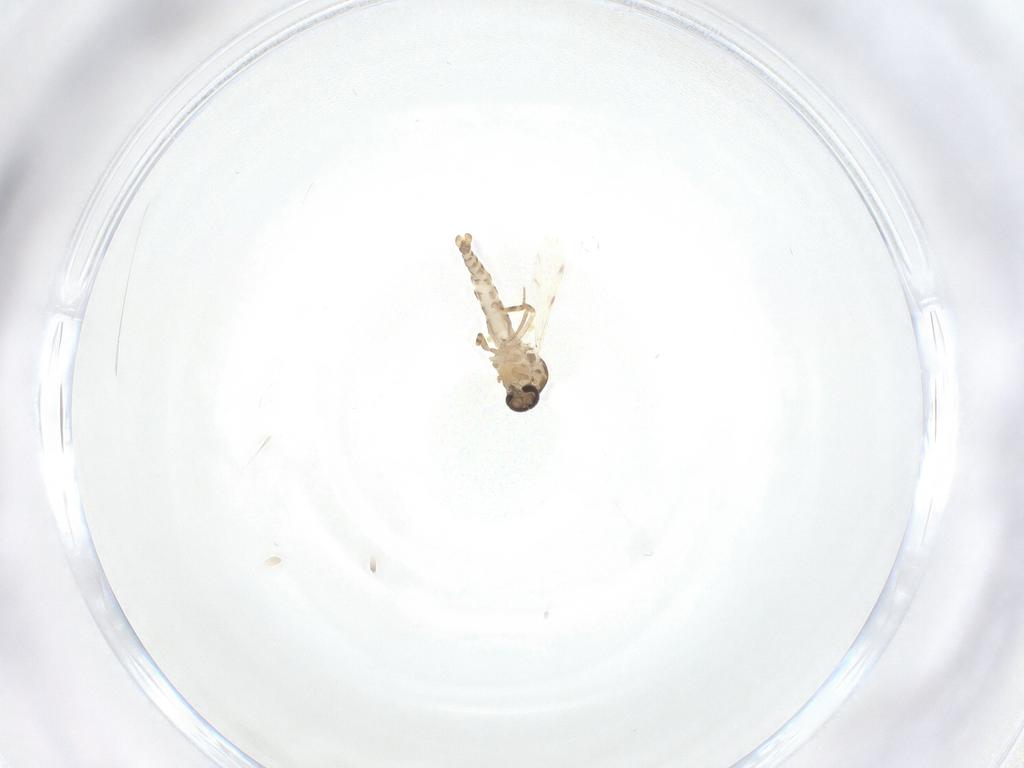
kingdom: Animalia
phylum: Arthropoda
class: Insecta
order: Diptera
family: Ceratopogonidae
